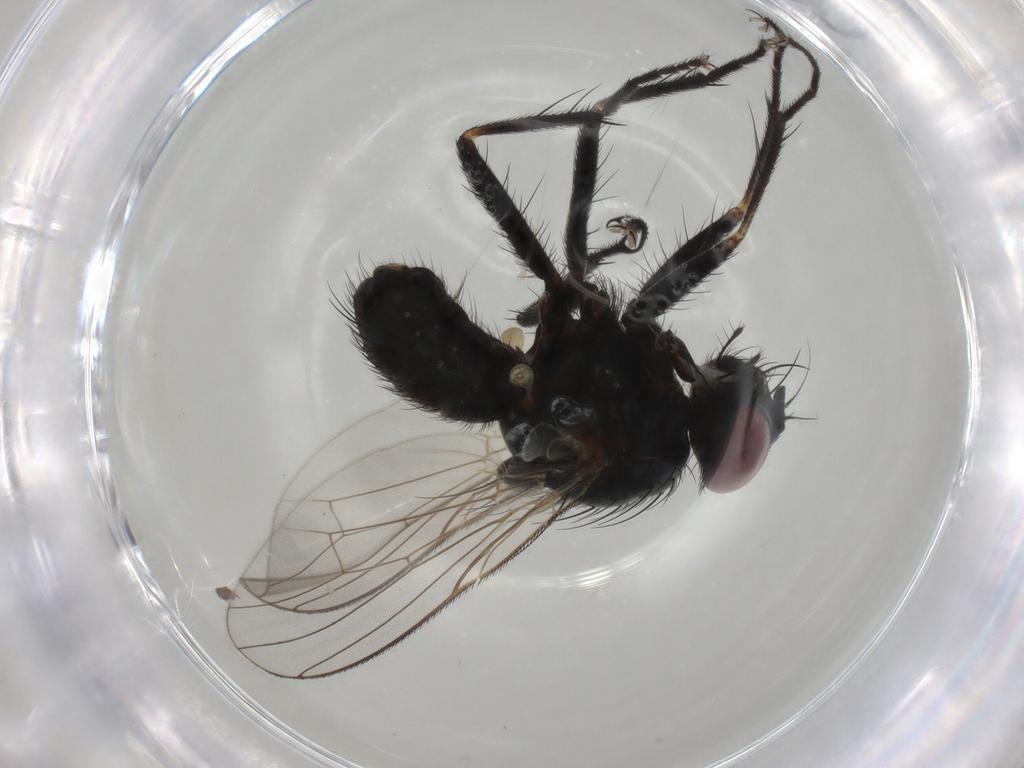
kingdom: Animalia
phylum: Arthropoda
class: Insecta
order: Diptera
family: Muscidae
